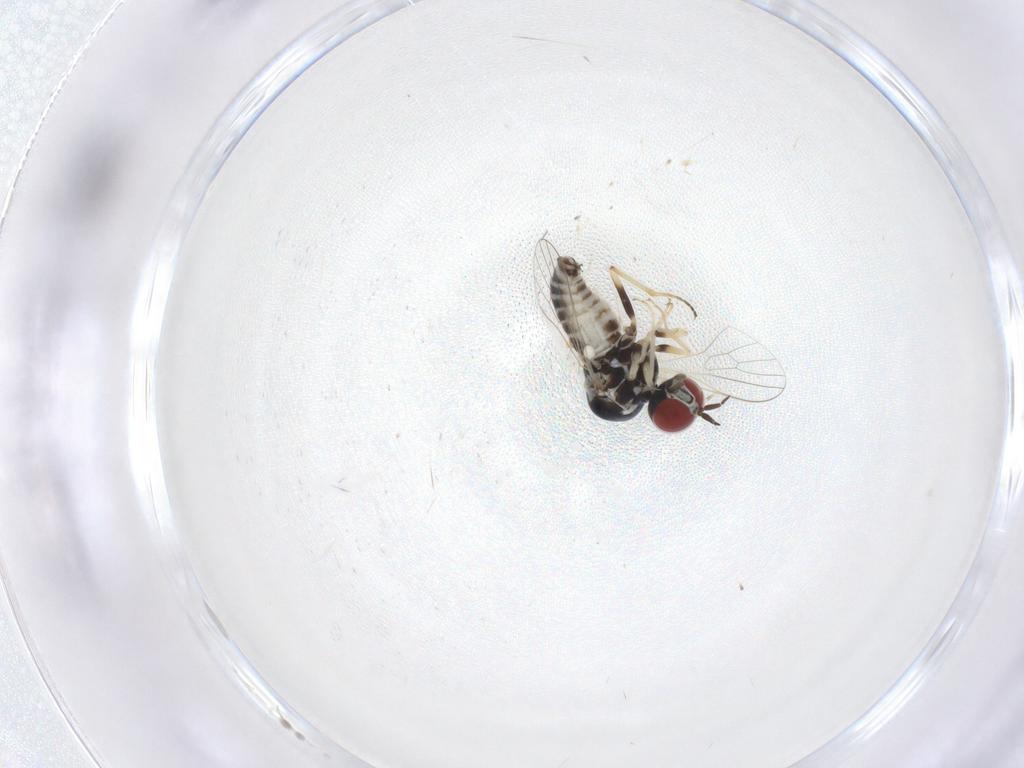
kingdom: Animalia
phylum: Arthropoda
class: Insecta
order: Diptera
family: Bombyliidae
